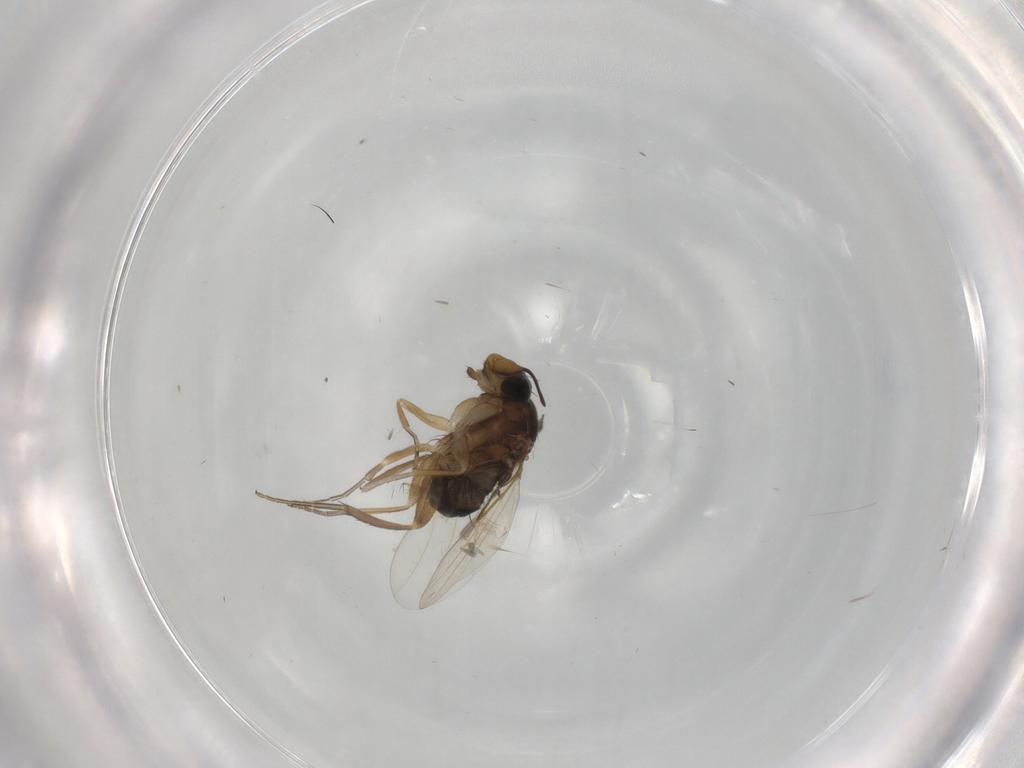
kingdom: Animalia
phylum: Arthropoda
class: Insecta
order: Diptera
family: Phoridae
